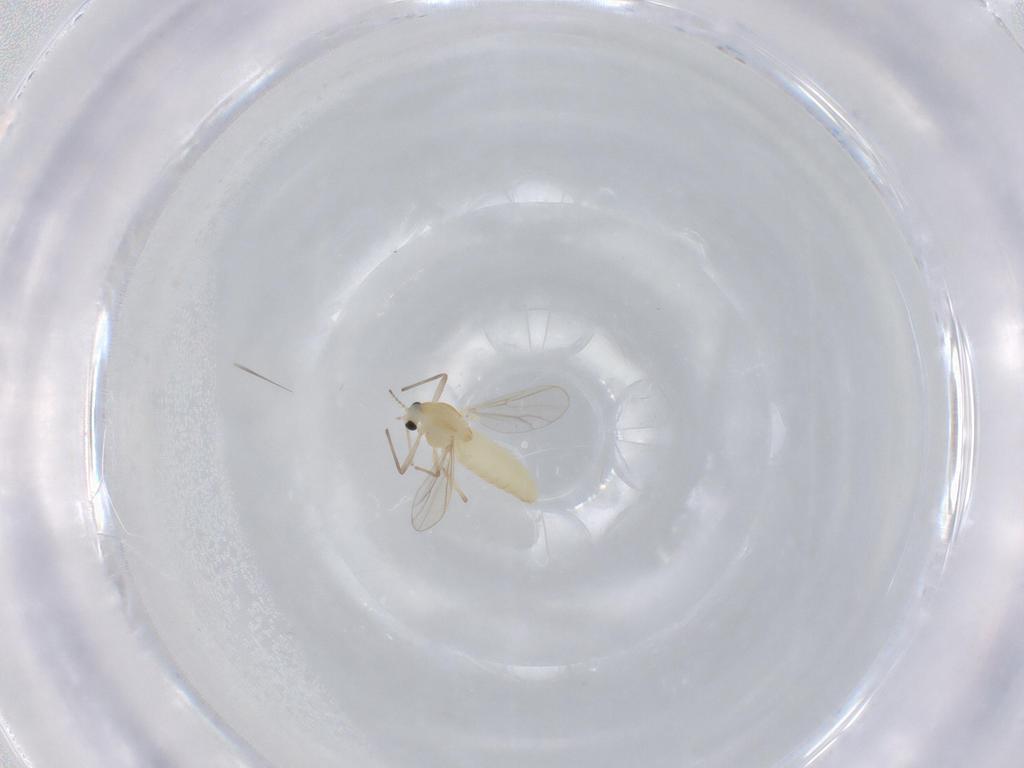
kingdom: Animalia
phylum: Arthropoda
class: Insecta
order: Diptera
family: Chironomidae
